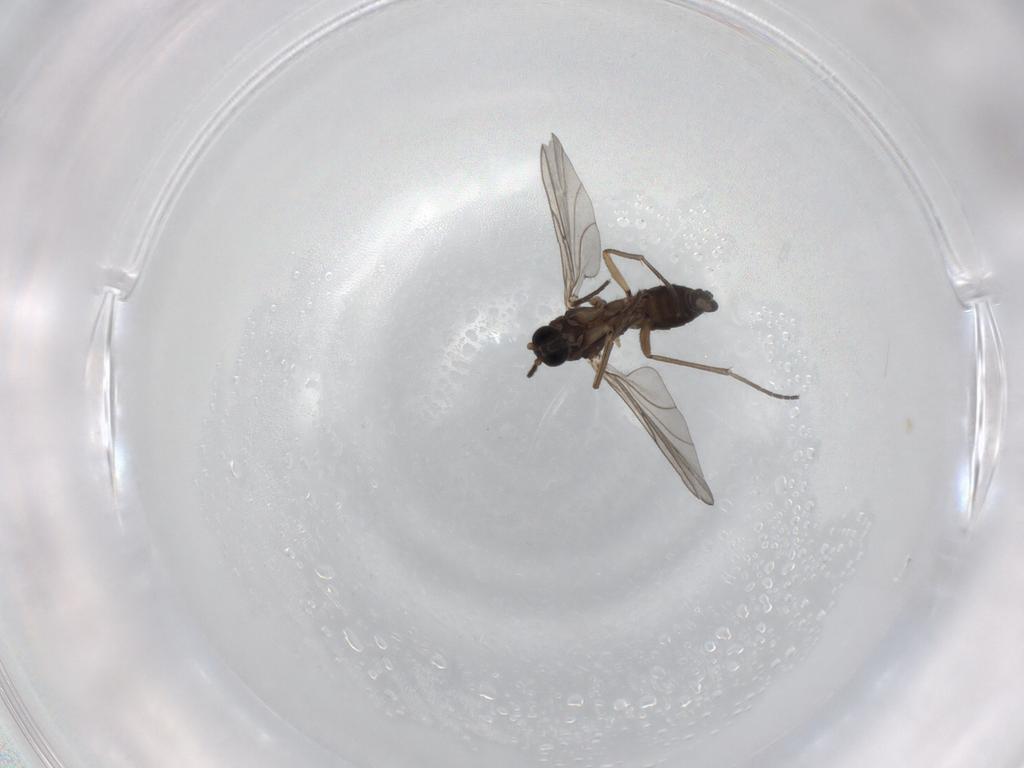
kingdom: Animalia
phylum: Arthropoda
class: Insecta
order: Diptera
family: Sciaridae
